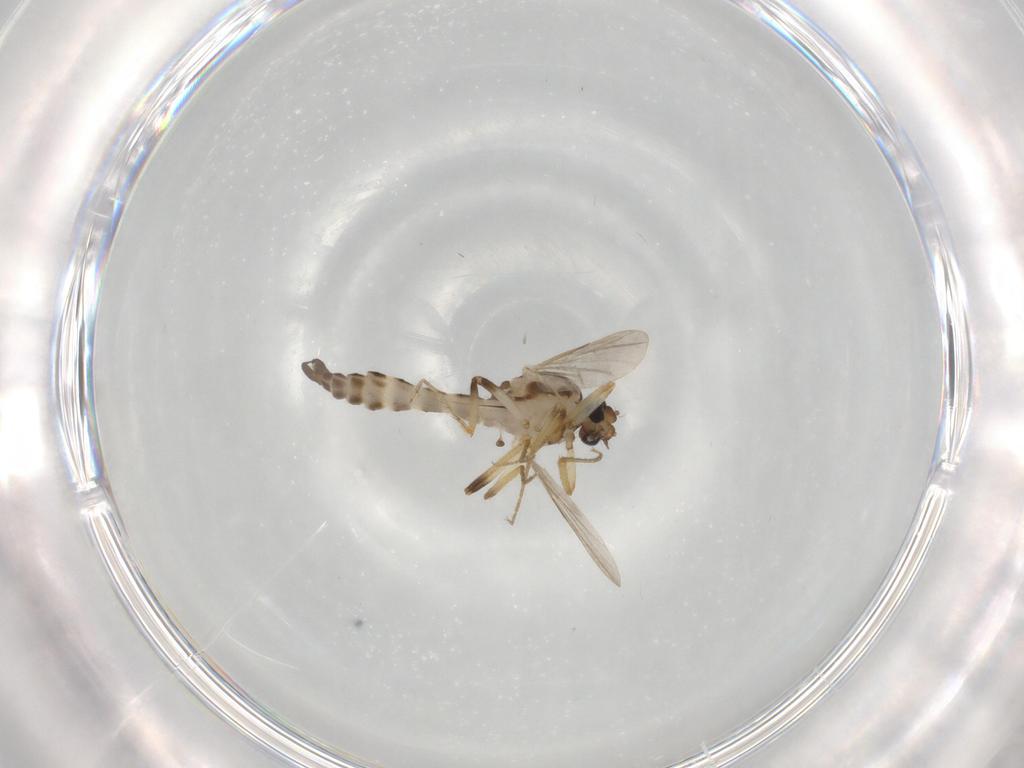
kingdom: Animalia
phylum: Arthropoda
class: Insecta
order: Diptera
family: Ceratopogonidae
